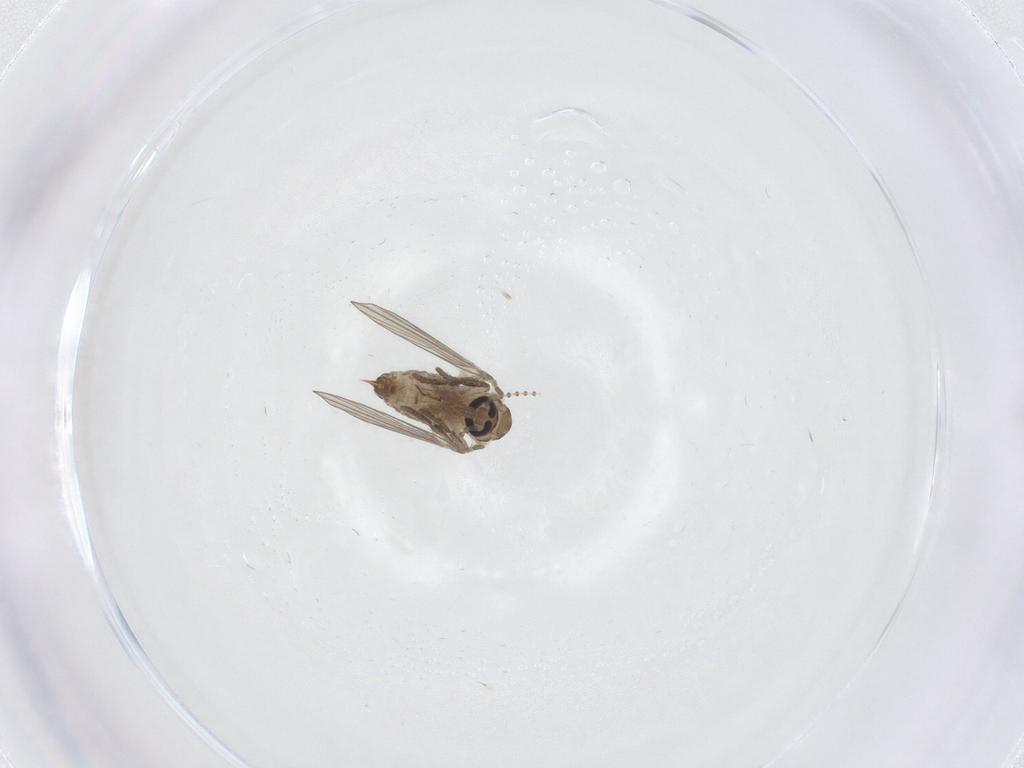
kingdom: Animalia
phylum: Arthropoda
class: Insecta
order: Diptera
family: Psychodidae
